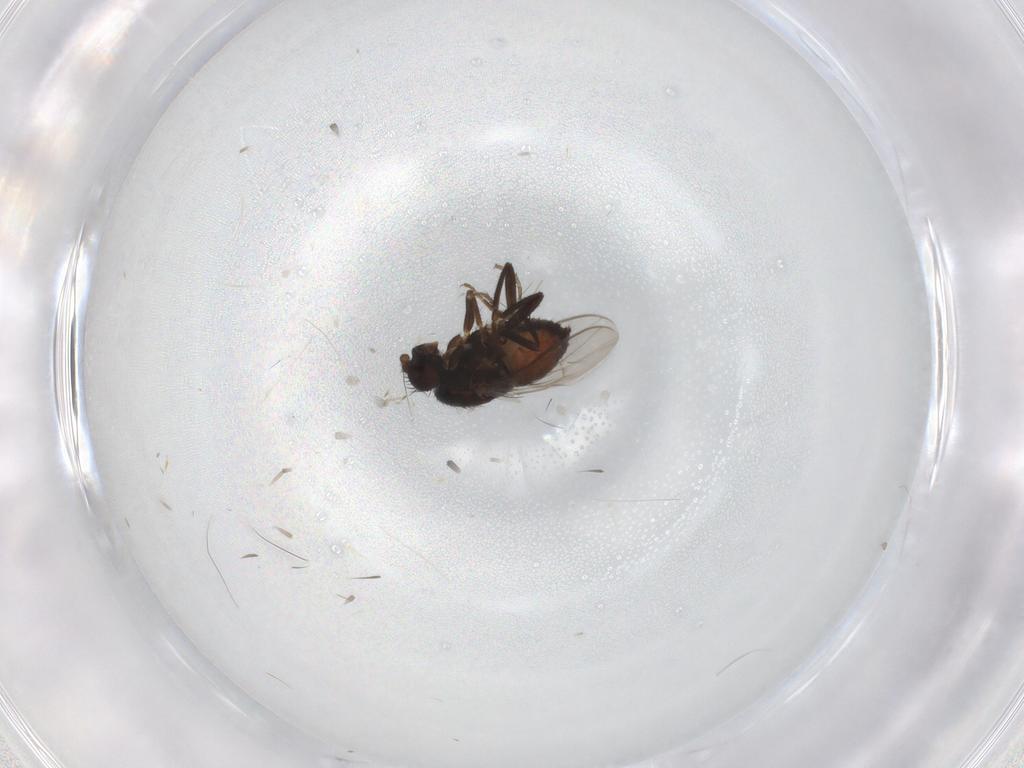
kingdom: Animalia
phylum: Arthropoda
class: Insecta
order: Diptera
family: Sphaeroceridae
